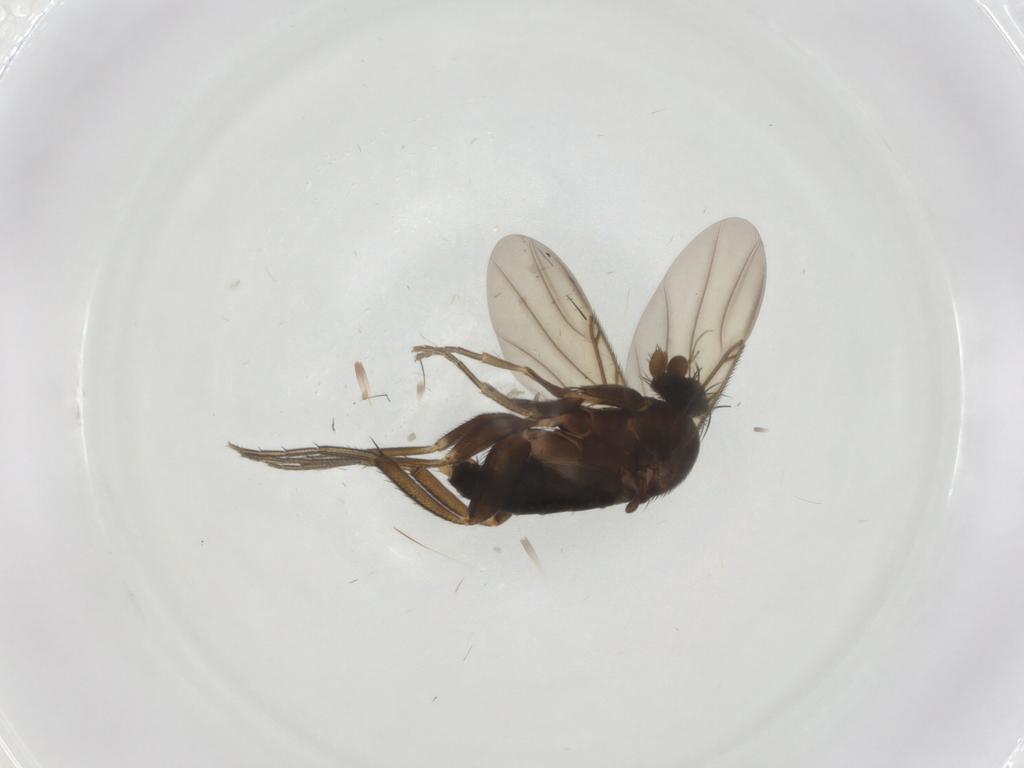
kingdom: Animalia
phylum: Arthropoda
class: Insecta
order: Diptera
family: Phoridae
